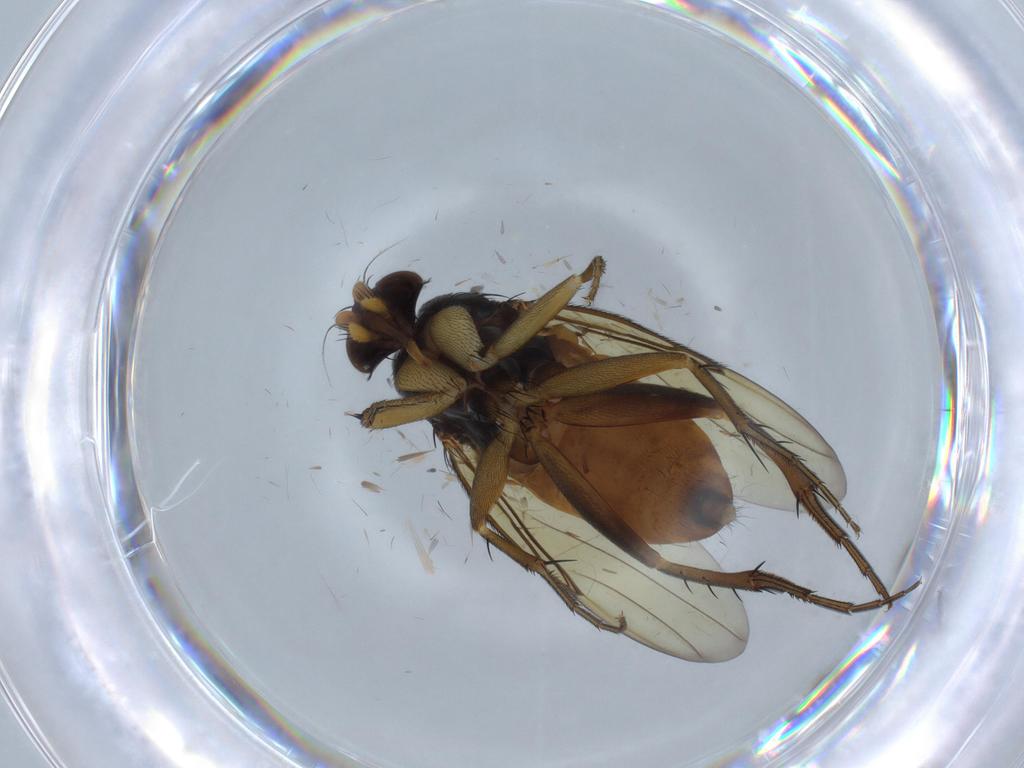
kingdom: Animalia
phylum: Arthropoda
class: Insecta
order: Diptera
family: Phoridae
